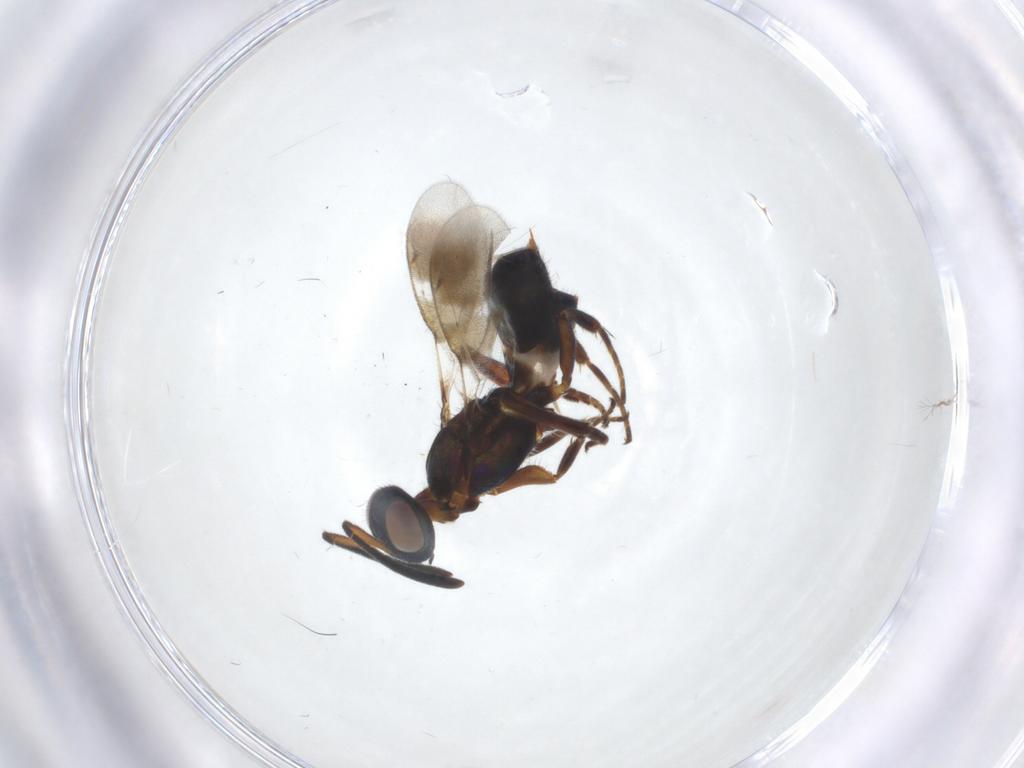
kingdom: Animalia
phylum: Arthropoda
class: Insecta
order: Hymenoptera
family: Eupelmidae
